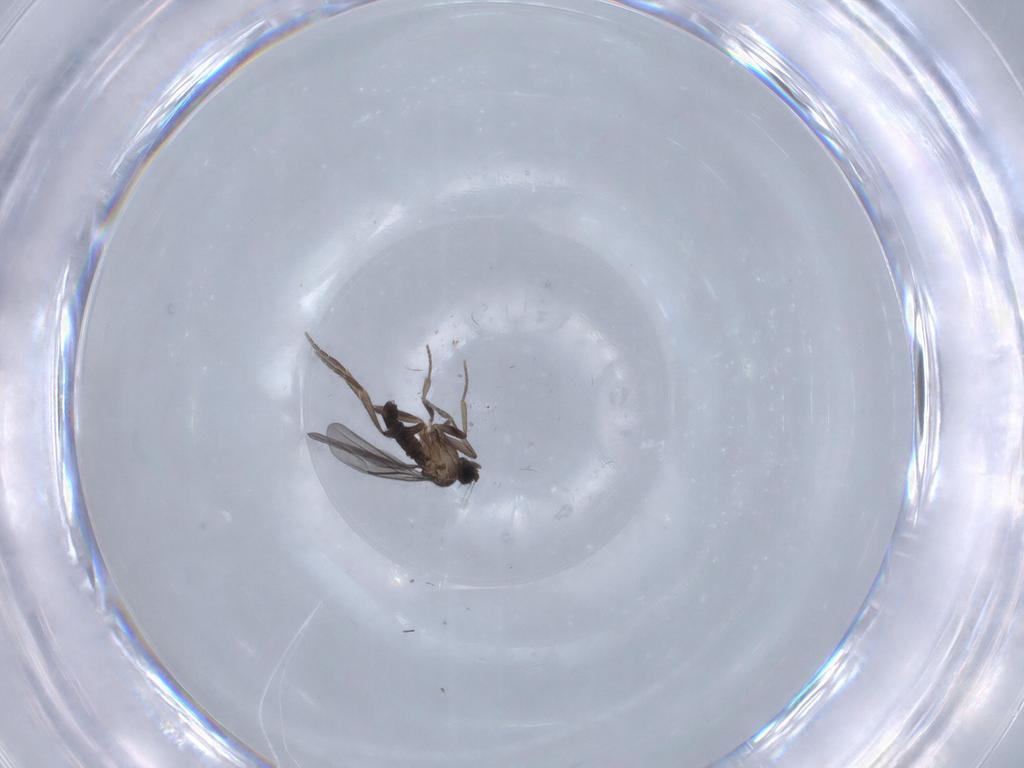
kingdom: Animalia
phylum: Arthropoda
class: Insecta
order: Diptera
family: Phoridae
